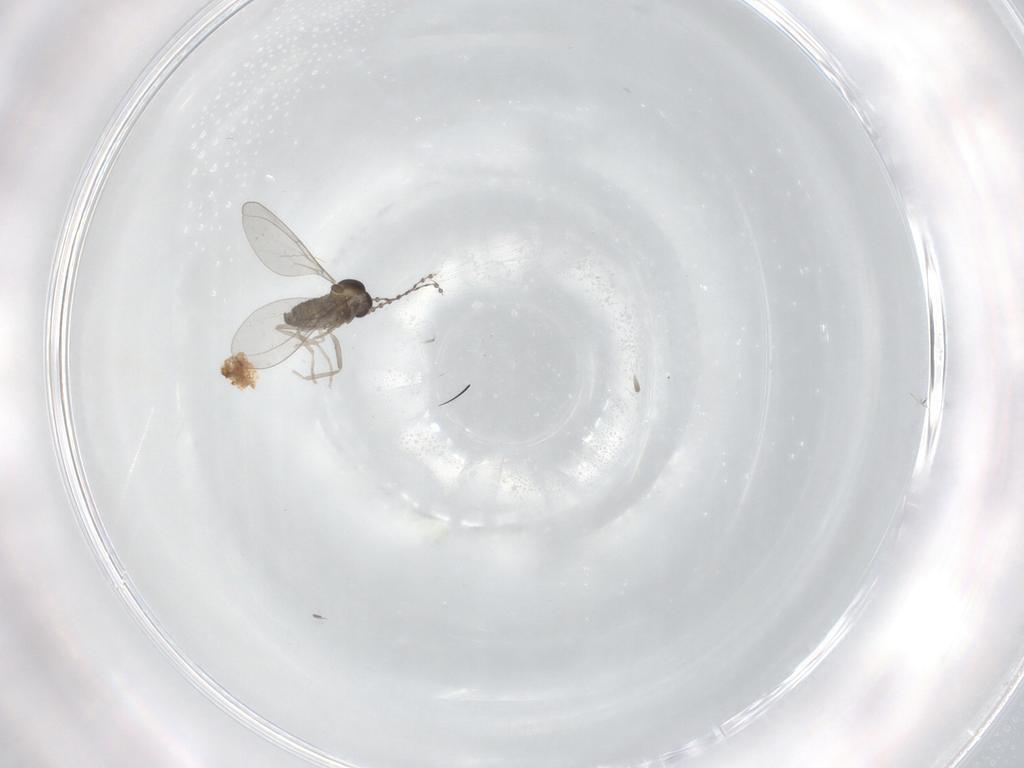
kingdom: Animalia
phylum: Arthropoda
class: Insecta
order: Diptera
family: Cecidomyiidae
